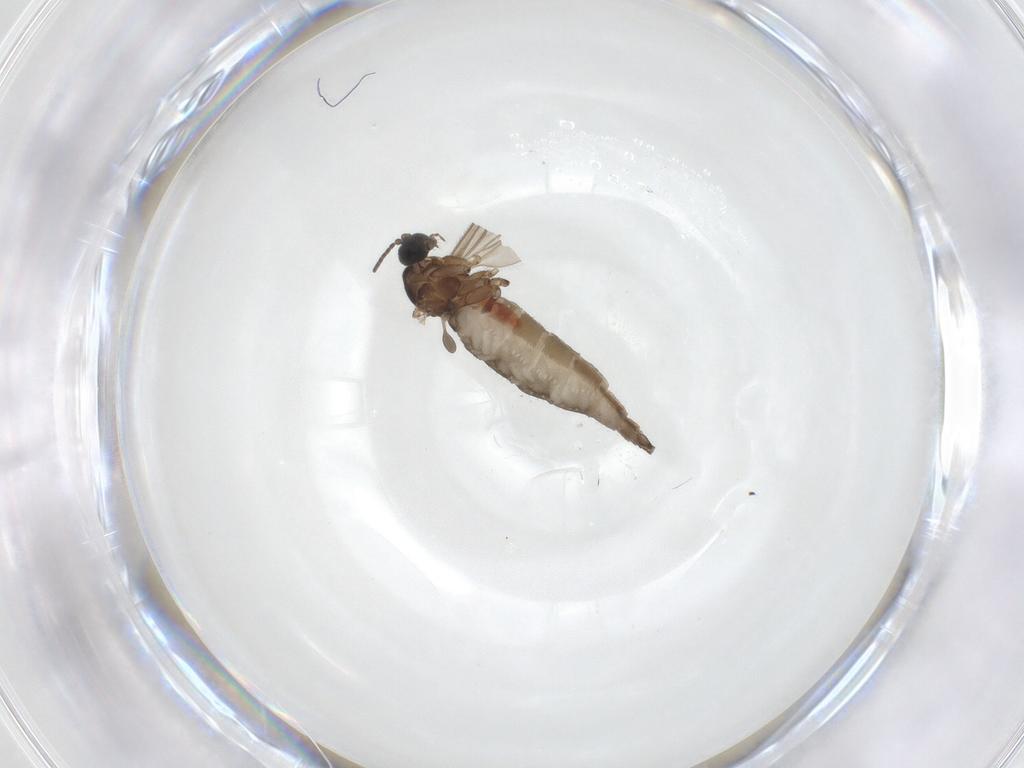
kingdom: Animalia
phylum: Arthropoda
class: Insecta
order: Diptera
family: Sciaridae
